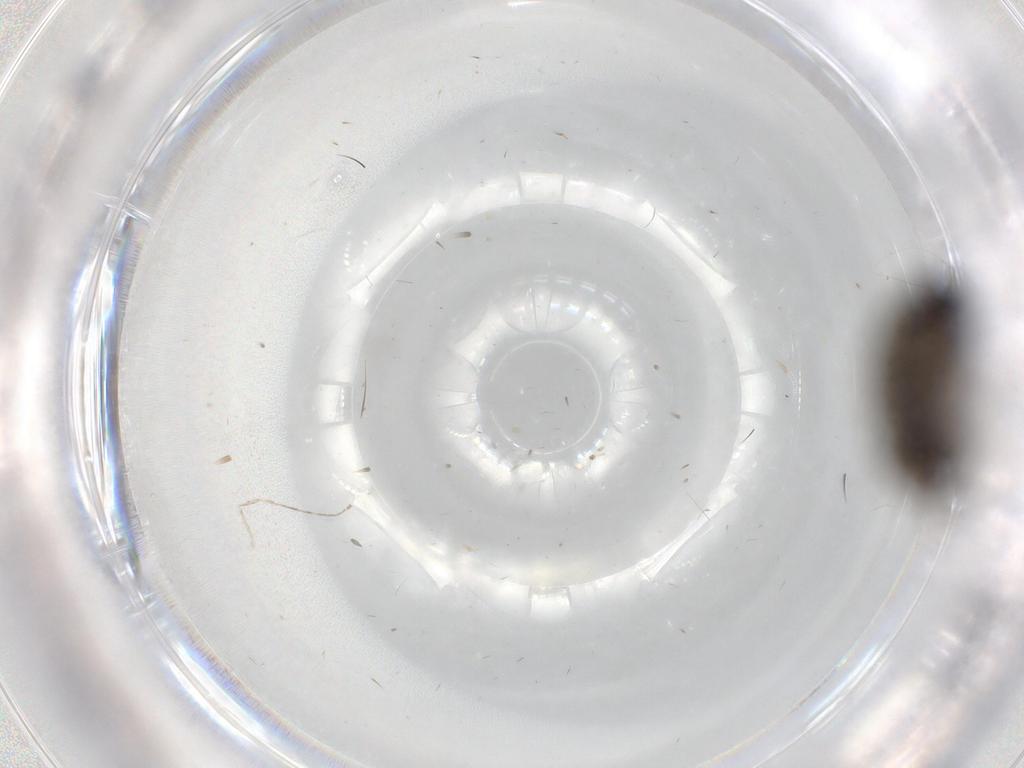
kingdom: Animalia
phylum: Arthropoda
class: Insecta
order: Diptera
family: Phoridae
